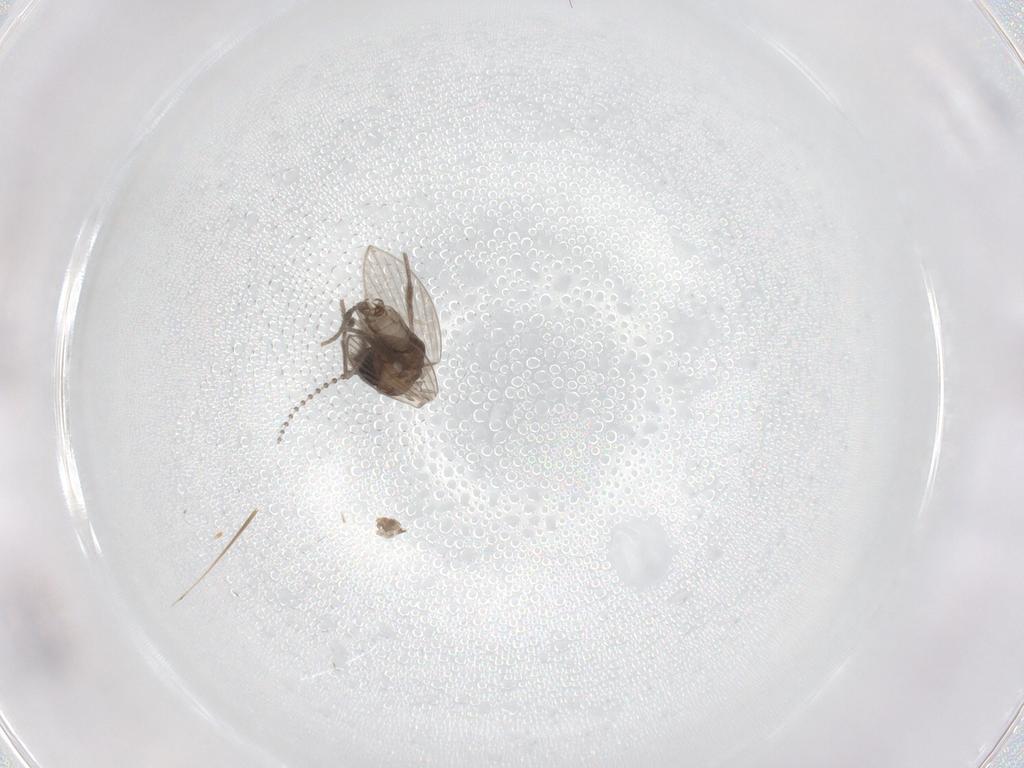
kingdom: Animalia
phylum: Arthropoda
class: Insecta
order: Diptera
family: Psychodidae
